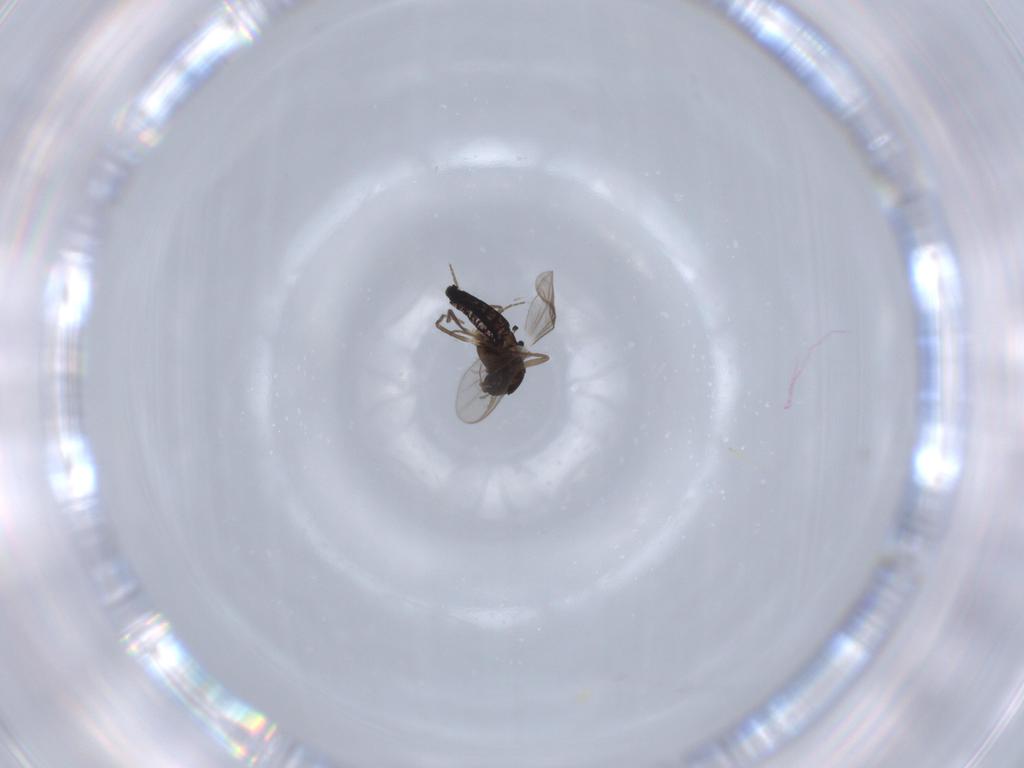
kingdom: Animalia
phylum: Arthropoda
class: Insecta
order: Diptera
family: Chironomidae
